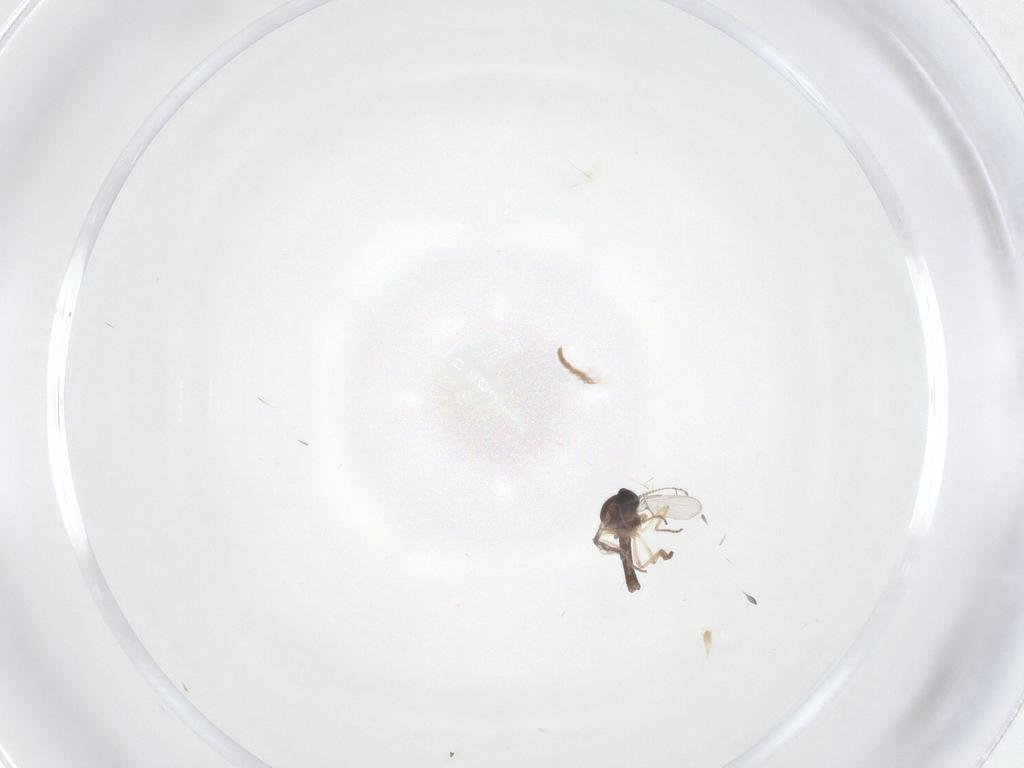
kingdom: Animalia
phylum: Arthropoda
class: Insecta
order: Diptera
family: Ceratopogonidae
